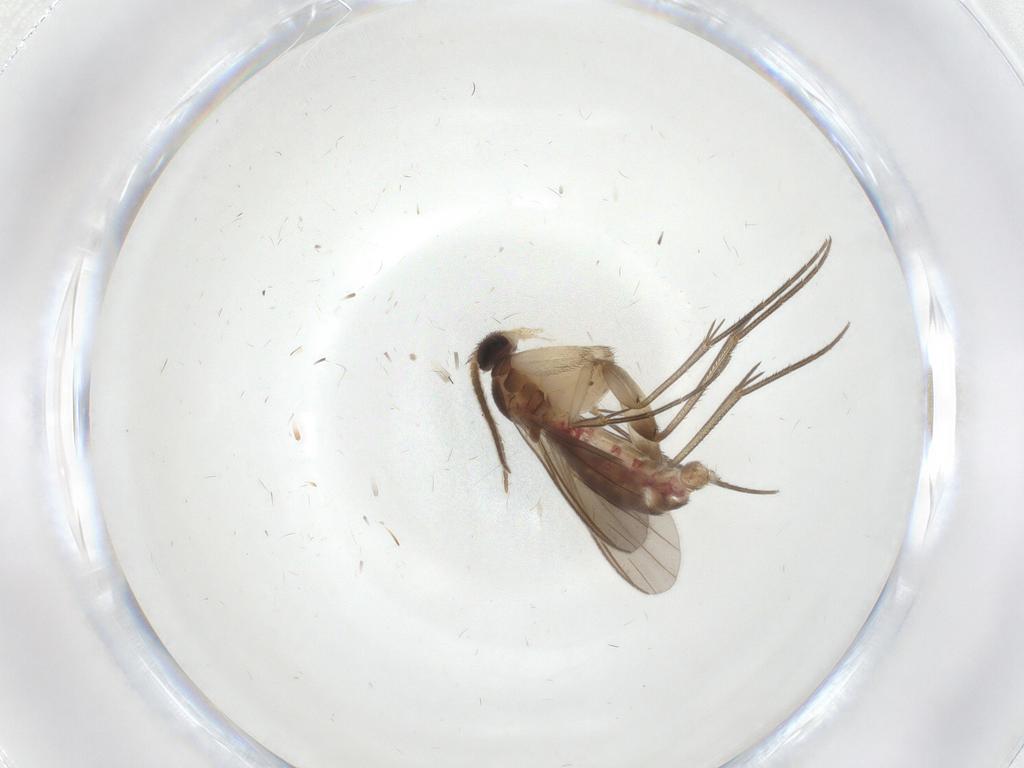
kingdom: Animalia
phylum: Arthropoda
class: Insecta
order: Diptera
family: Mycetophilidae
